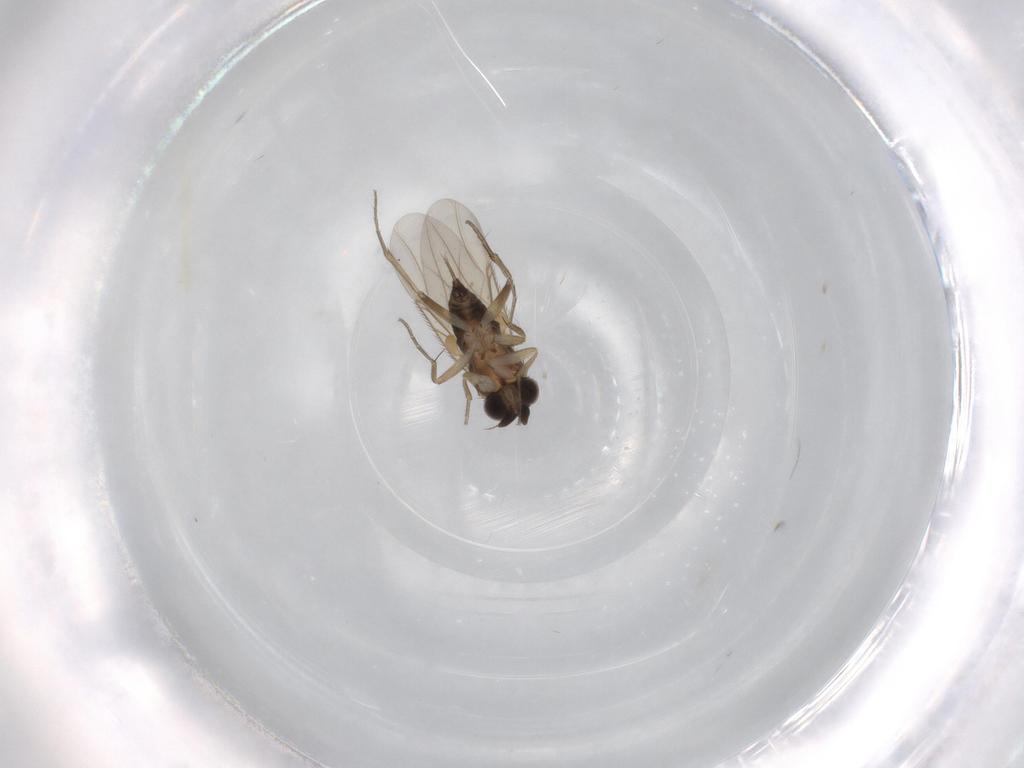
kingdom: Animalia
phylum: Arthropoda
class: Insecta
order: Diptera
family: Phoridae
